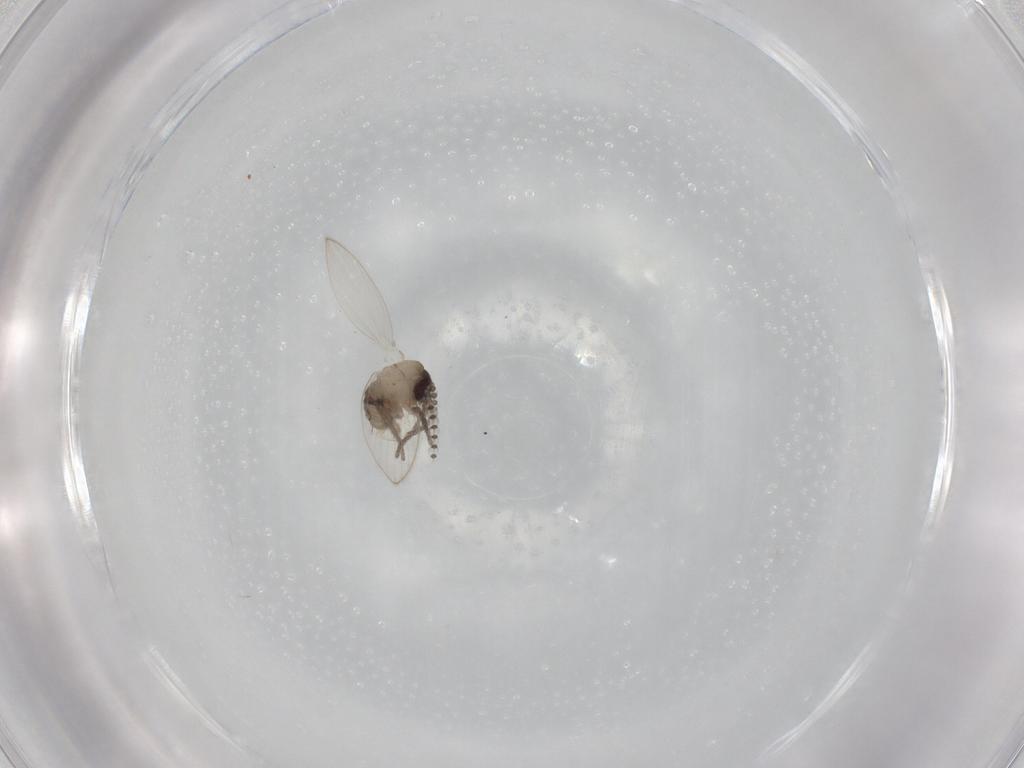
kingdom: Animalia
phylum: Arthropoda
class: Insecta
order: Diptera
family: Psychodidae
